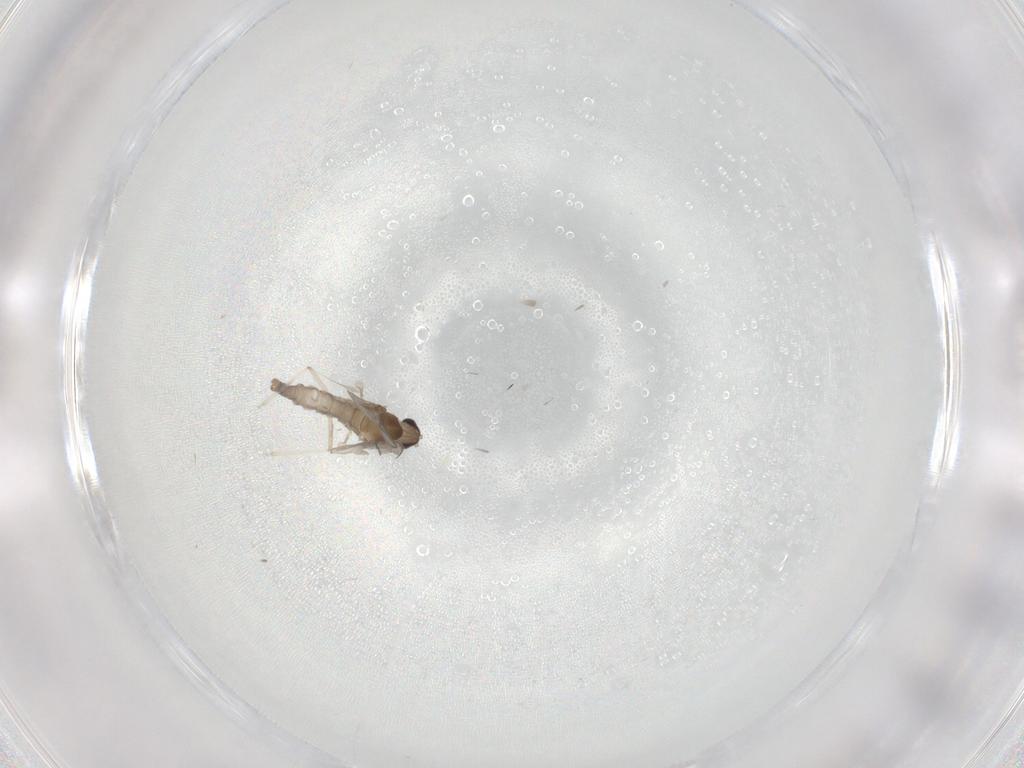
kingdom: Animalia
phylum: Arthropoda
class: Insecta
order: Diptera
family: Cecidomyiidae
